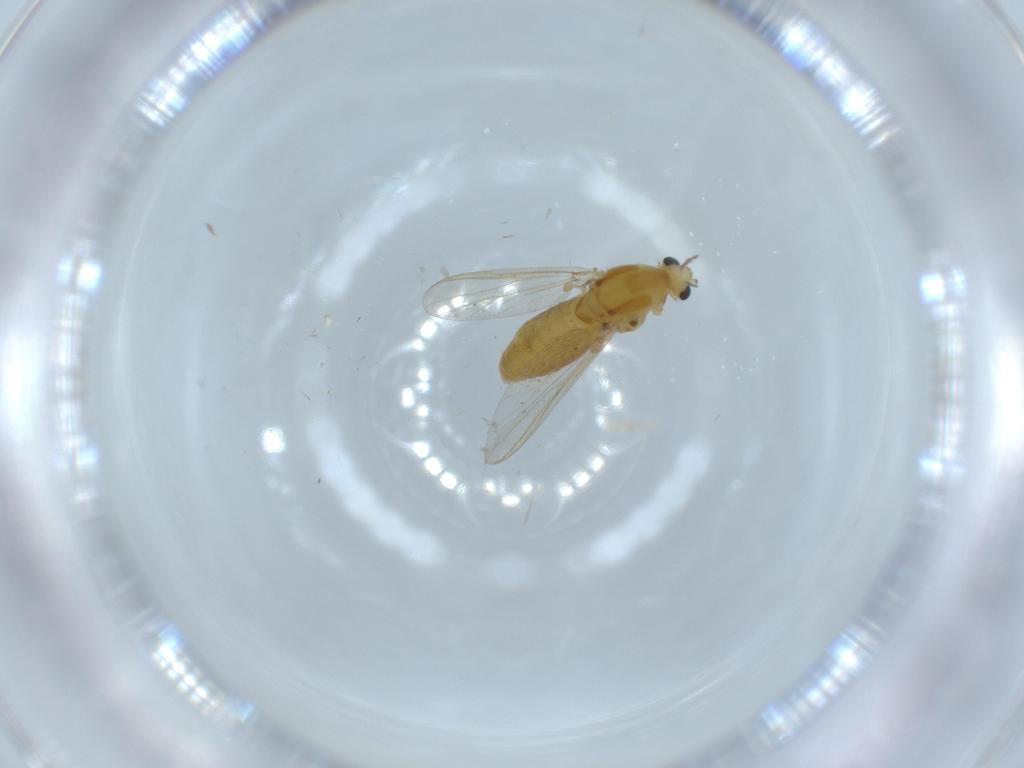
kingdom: Animalia
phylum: Arthropoda
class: Insecta
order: Diptera
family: Chironomidae
